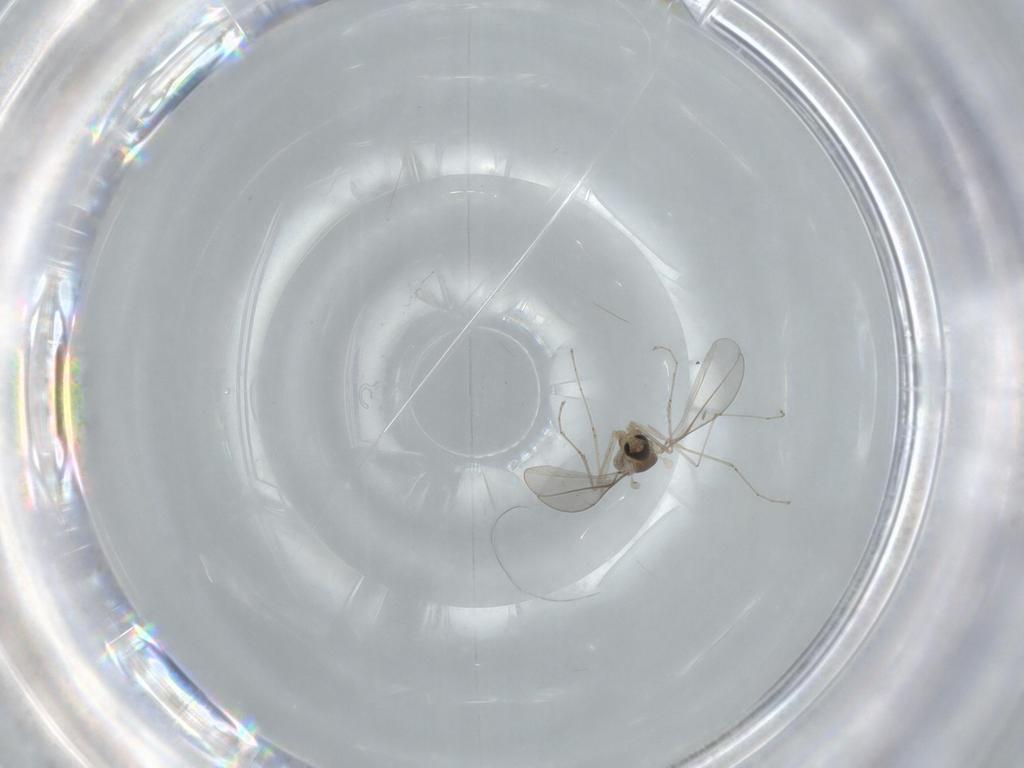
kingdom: Animalia
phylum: Arthropoda
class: Insecta
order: Diptera
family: Cecidomyiidae
